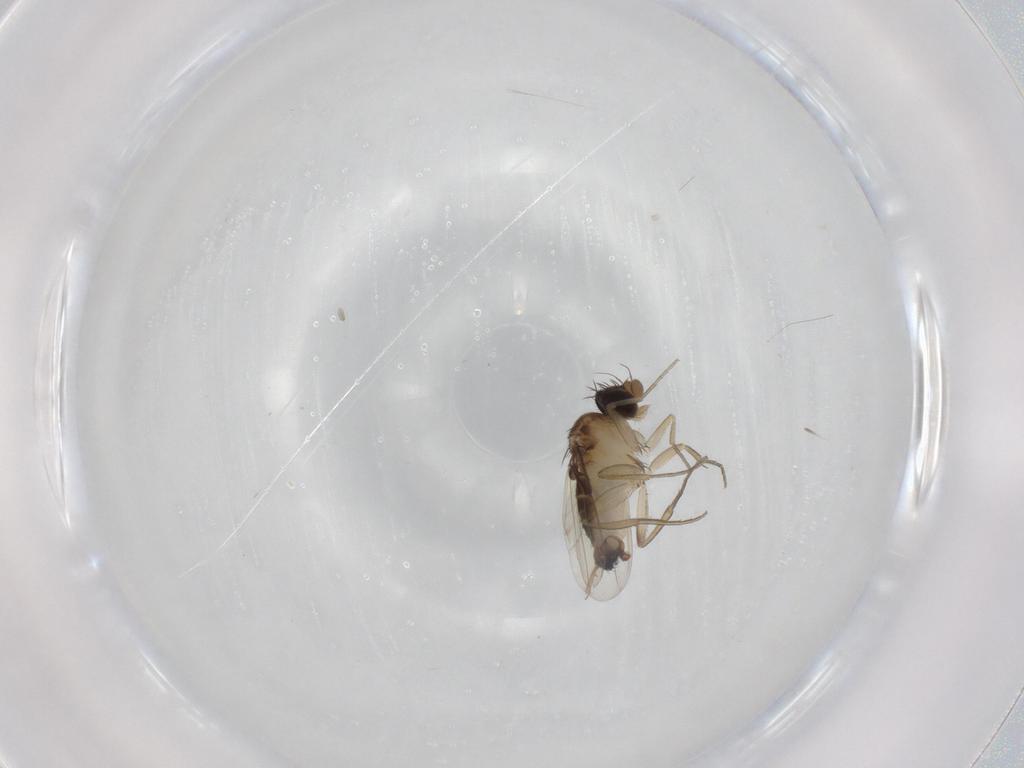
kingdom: Animalia
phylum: Arthropoda
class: Insecta
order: Diptera
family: Phoridae
